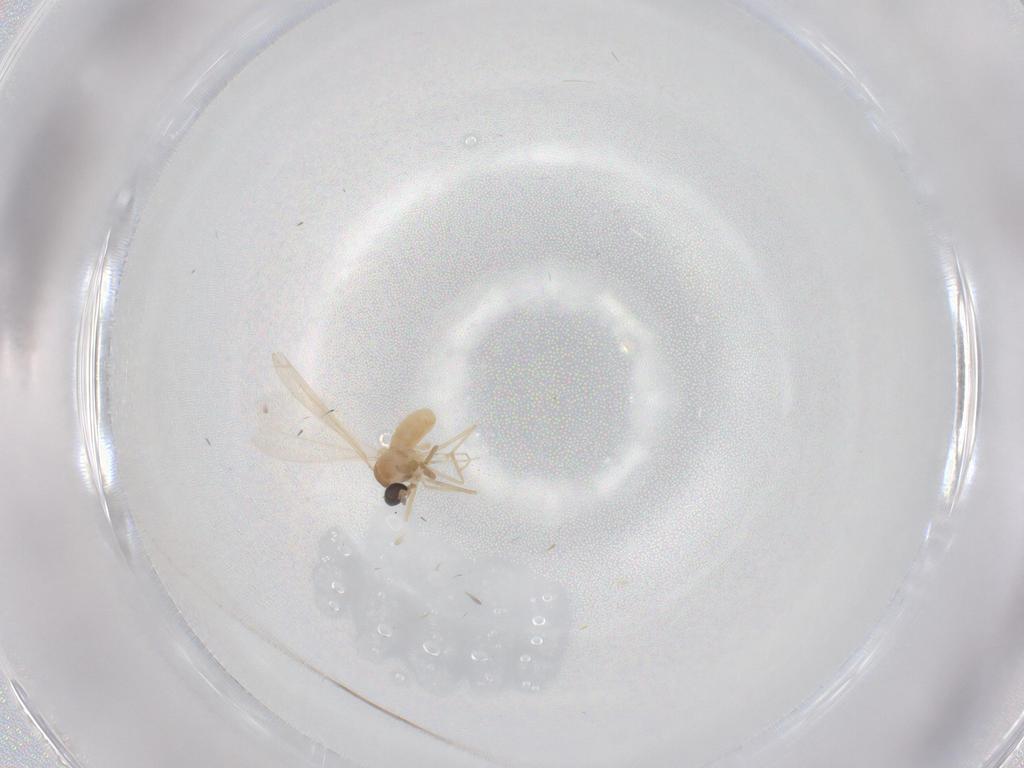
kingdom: Animalia
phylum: Arthropoda
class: Insecta
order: Diptera
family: Cecidomyiidae
